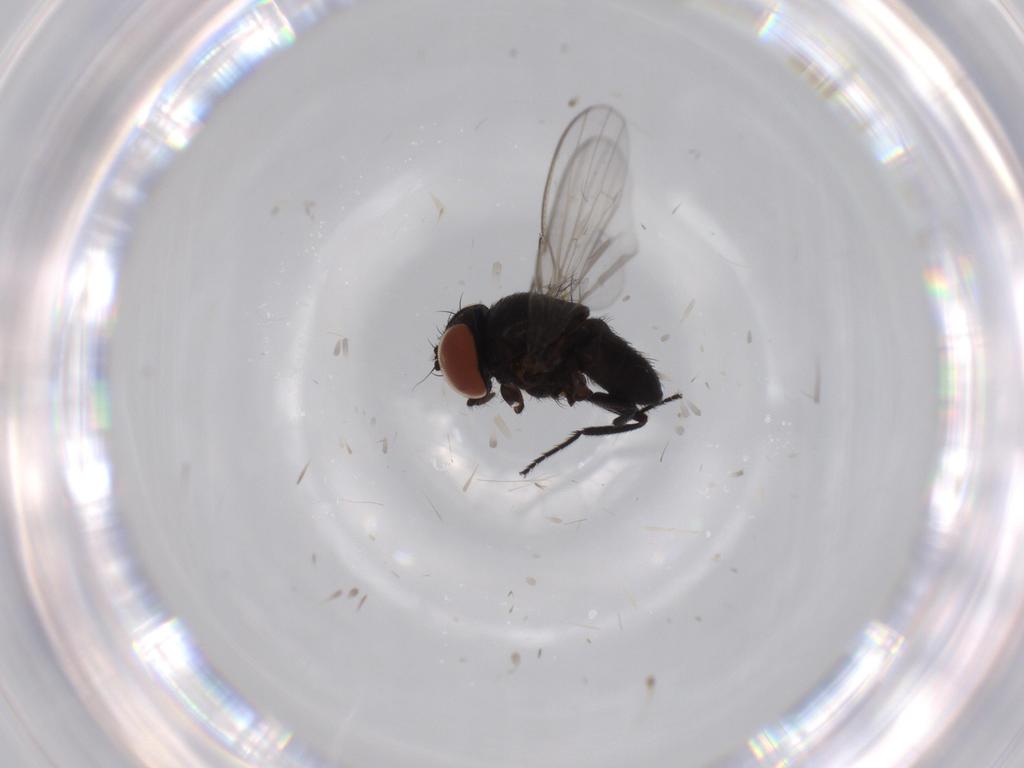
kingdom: Animalia
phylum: Arthropoda
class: Insecta
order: Diptera
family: Milichiidae
